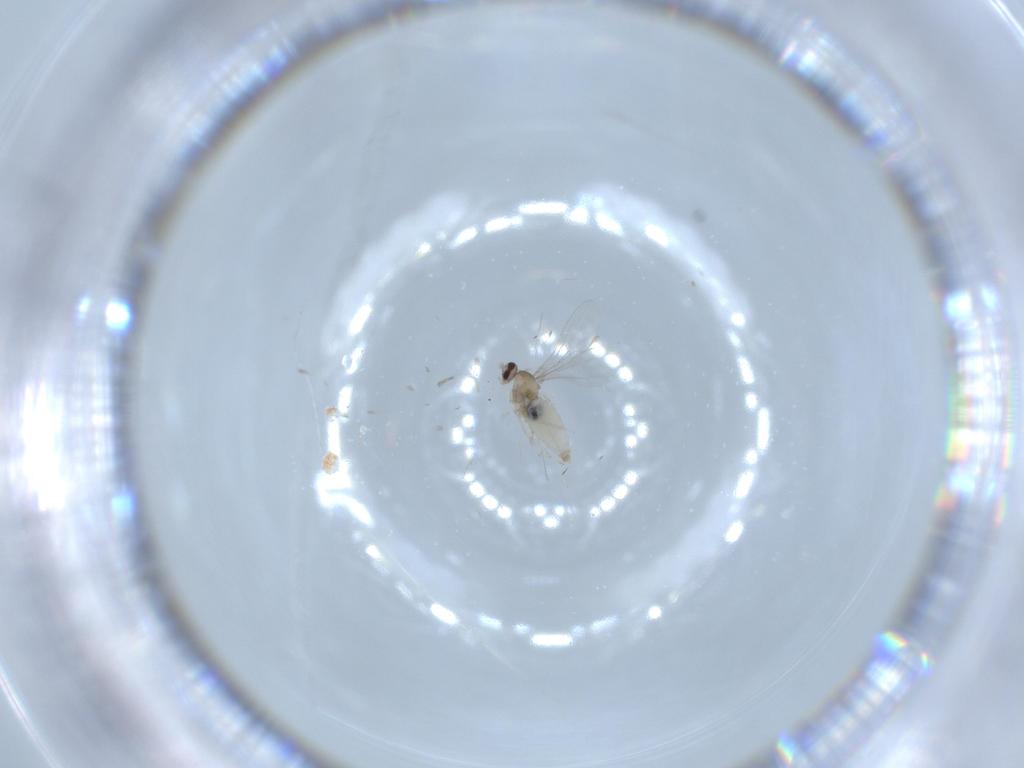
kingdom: Animalia
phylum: Arthropoda
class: Insecta
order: Diptera
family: Cecidomyiidae
